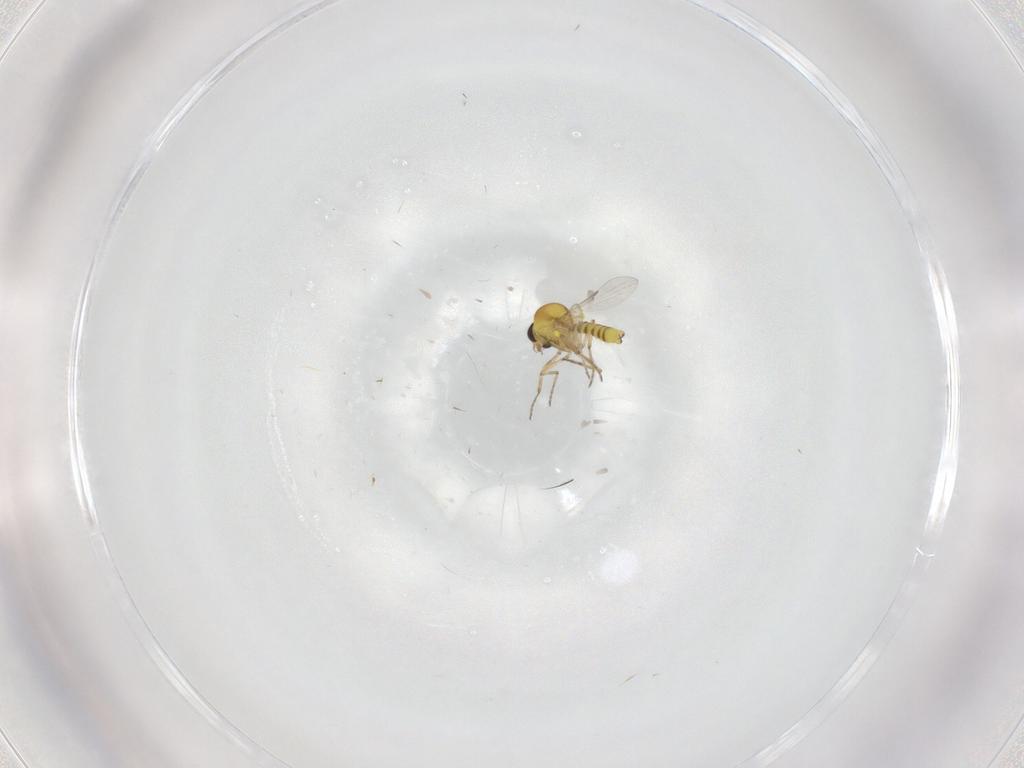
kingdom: Animalia
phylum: Arthropoda
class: Insecta
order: Diptera
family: Ceratopogonidae
